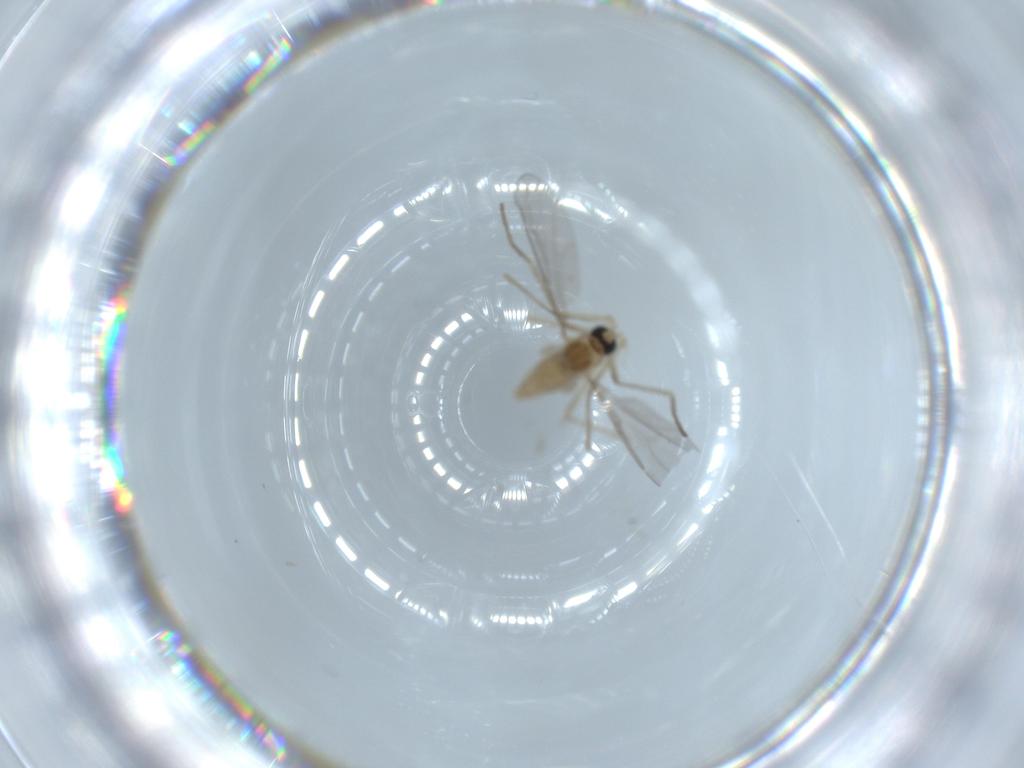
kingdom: Animalia
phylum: Arthropoda
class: Insecta
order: Diptera
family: Cecidomyiidae
